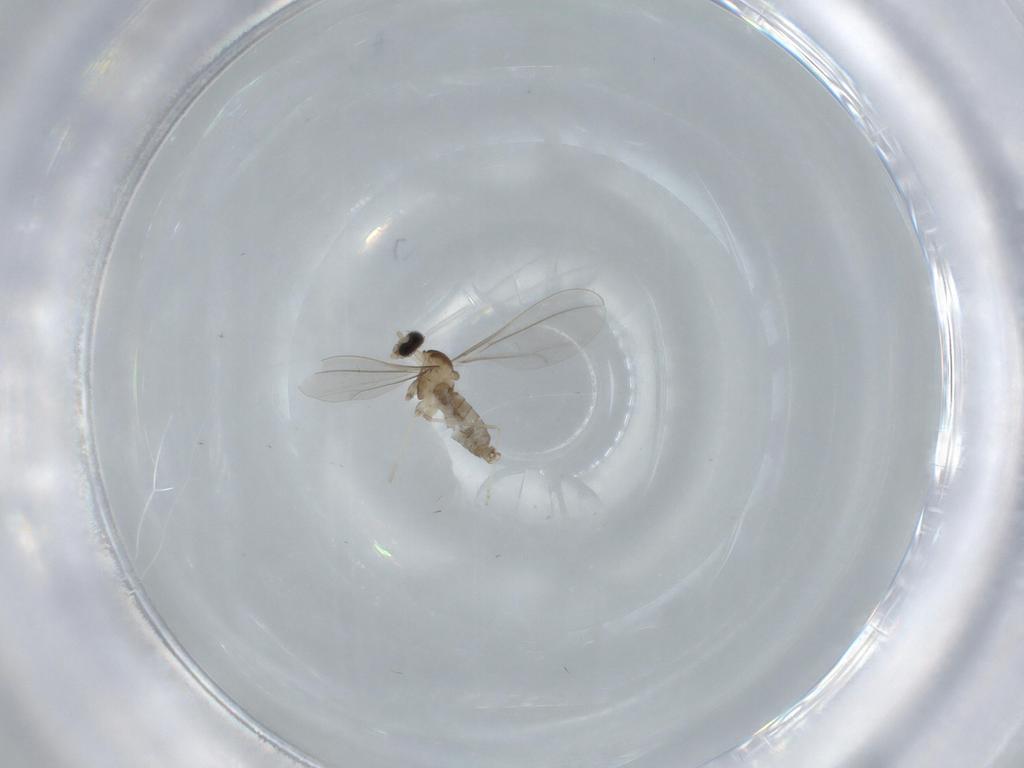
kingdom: Animalia
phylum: Arthropoda
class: Insecta
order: Diptera
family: Cecidomyiidae
